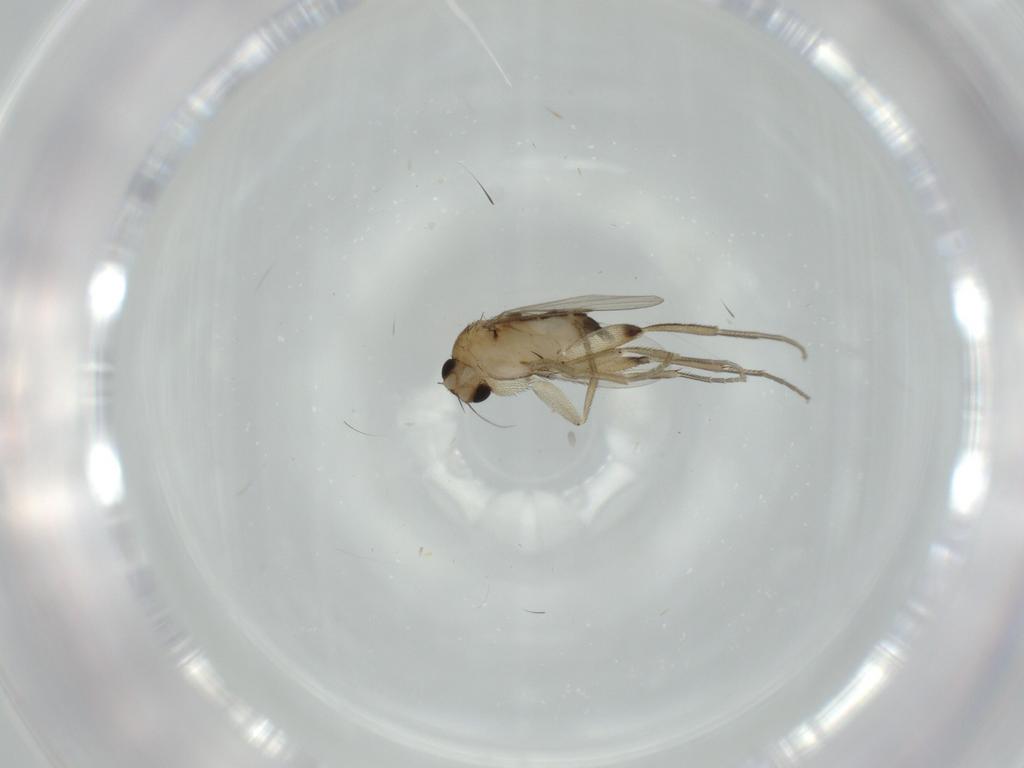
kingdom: Animalia
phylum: Arthropoda
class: Insecta
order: Diptera
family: Phoridae
